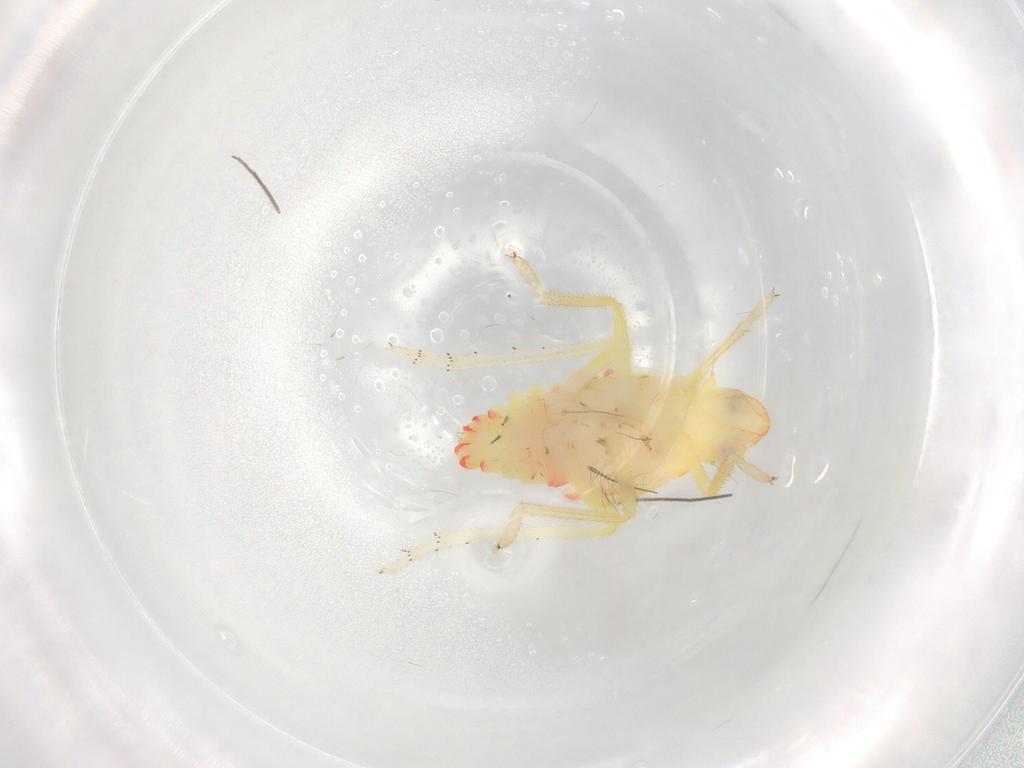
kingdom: Animalia
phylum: Arthropoda
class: Insecta
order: Hemiptera
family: Tropiduchidae
